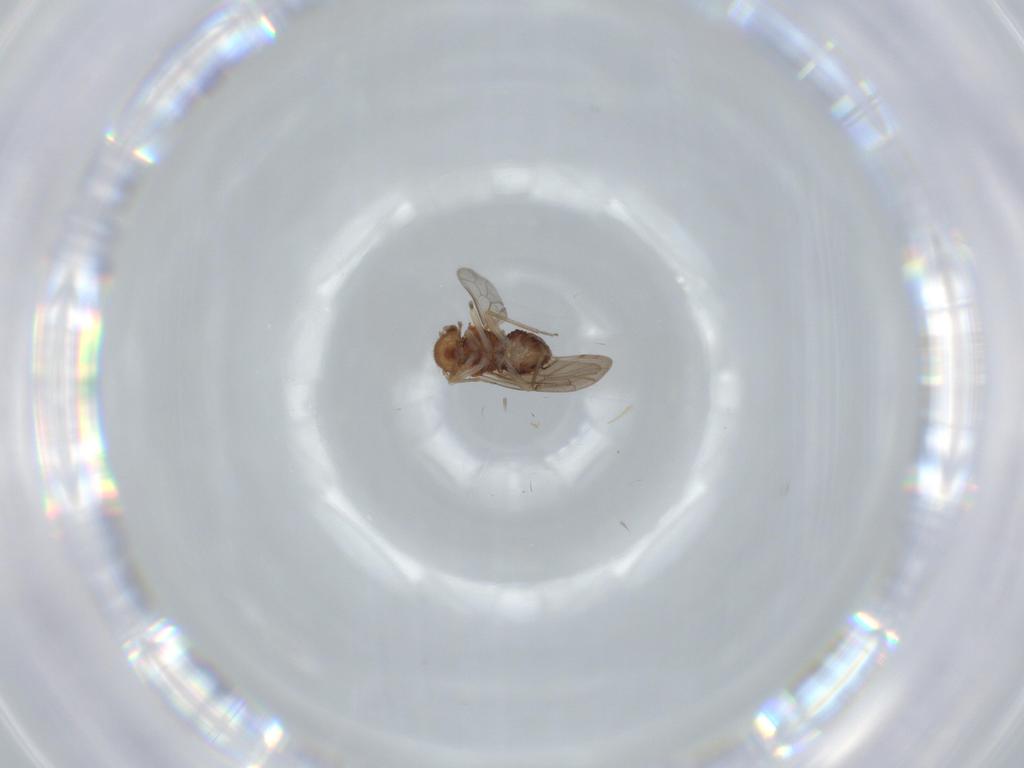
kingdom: Animalia
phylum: Arthropoda
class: Insecta
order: Psocodea
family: Ectopsocidae
